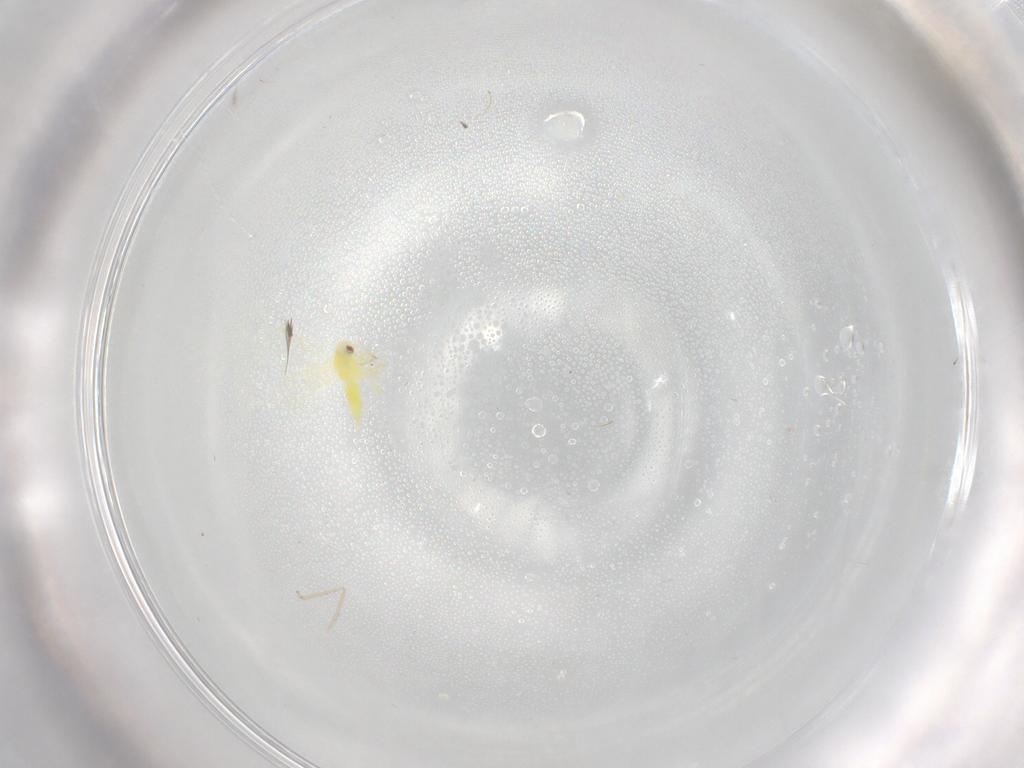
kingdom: Animalia
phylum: Arthropoda
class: Insecta
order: Hemiptera
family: Aleyrodidae
